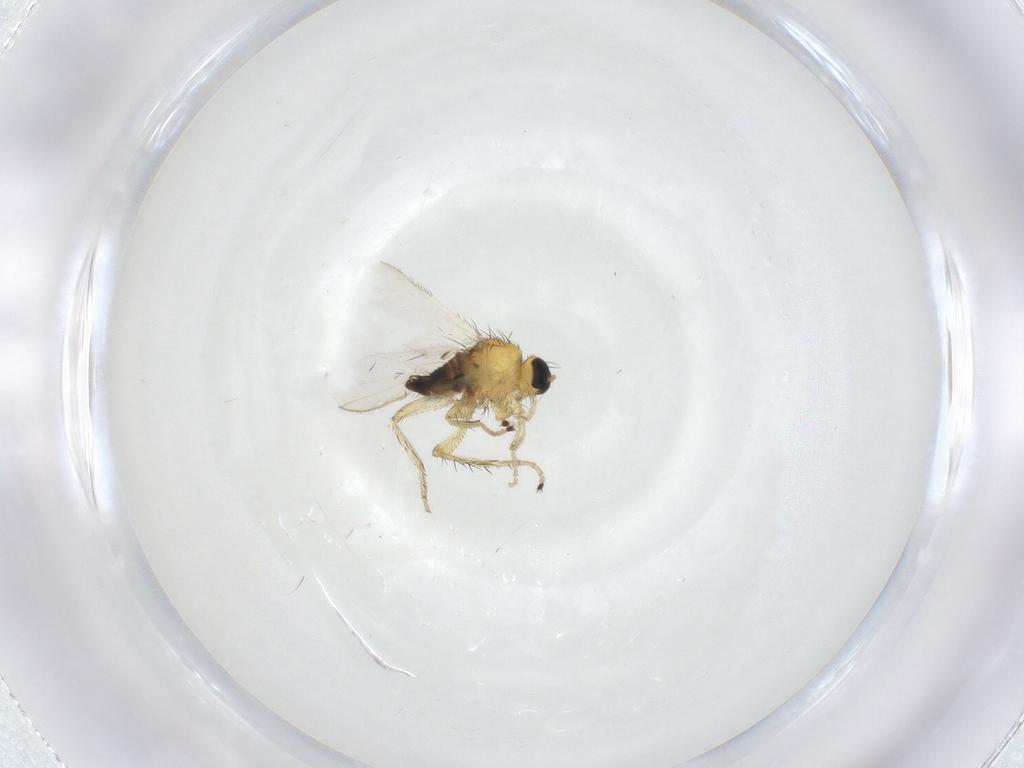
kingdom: Animalia
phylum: Arthropoda
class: Insecta
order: Diptera
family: Hybotidae
